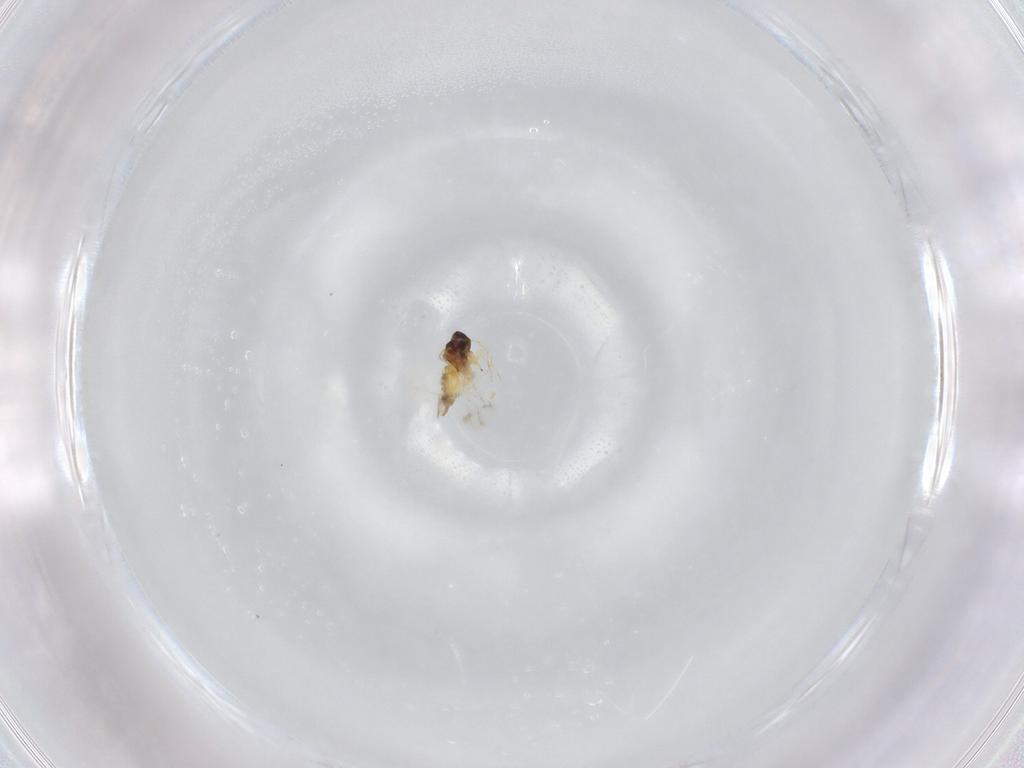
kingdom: Animalia
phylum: Arthropoda
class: Insecta
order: Hemiptera
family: Aleyrodidae
